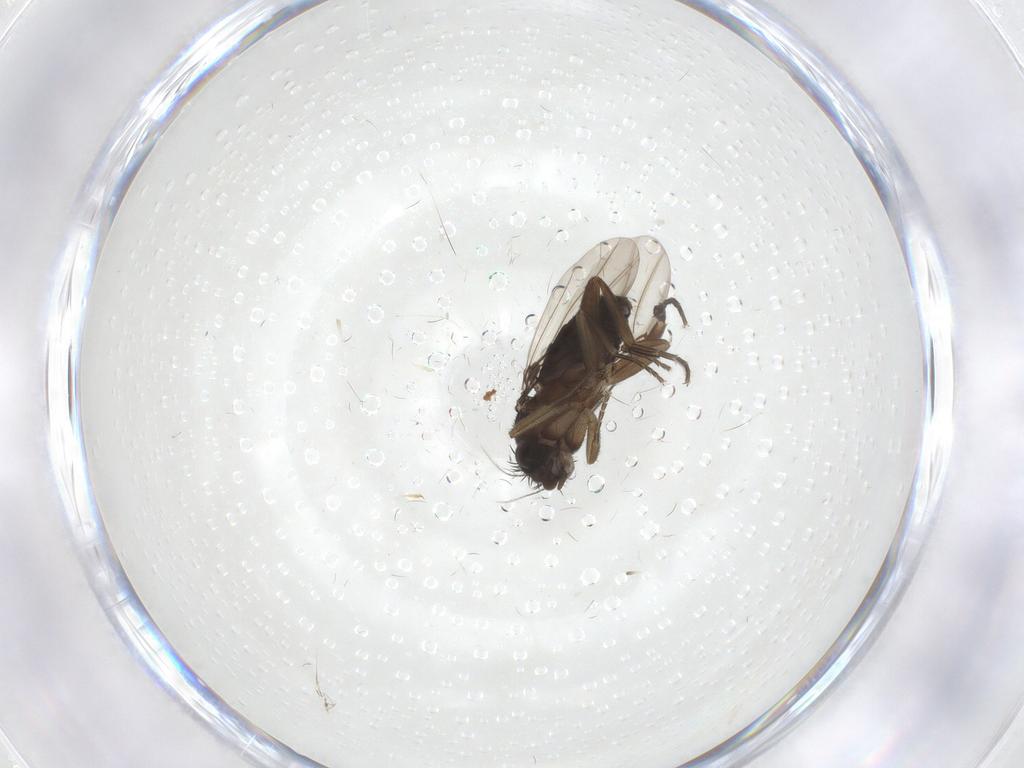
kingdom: Animalia
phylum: Arthropoda
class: Insecta
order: Diptera
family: Phoridae
